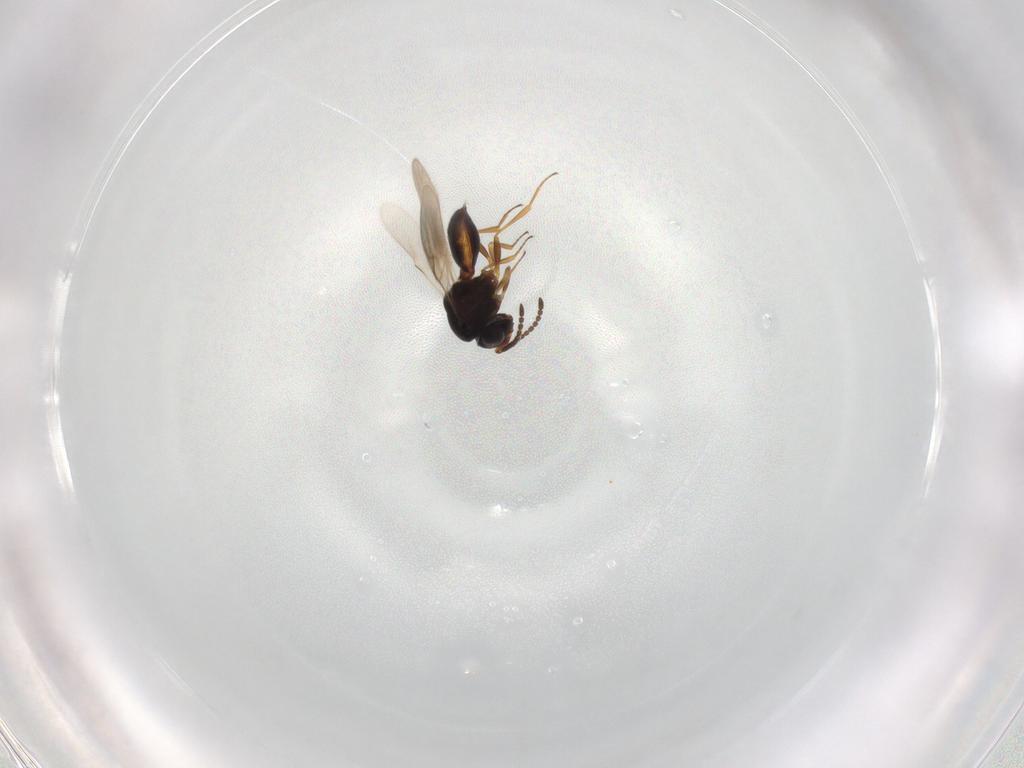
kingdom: Animalia
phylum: Arthropoda
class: Insecta
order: Hymenoptera
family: Scelionidae
